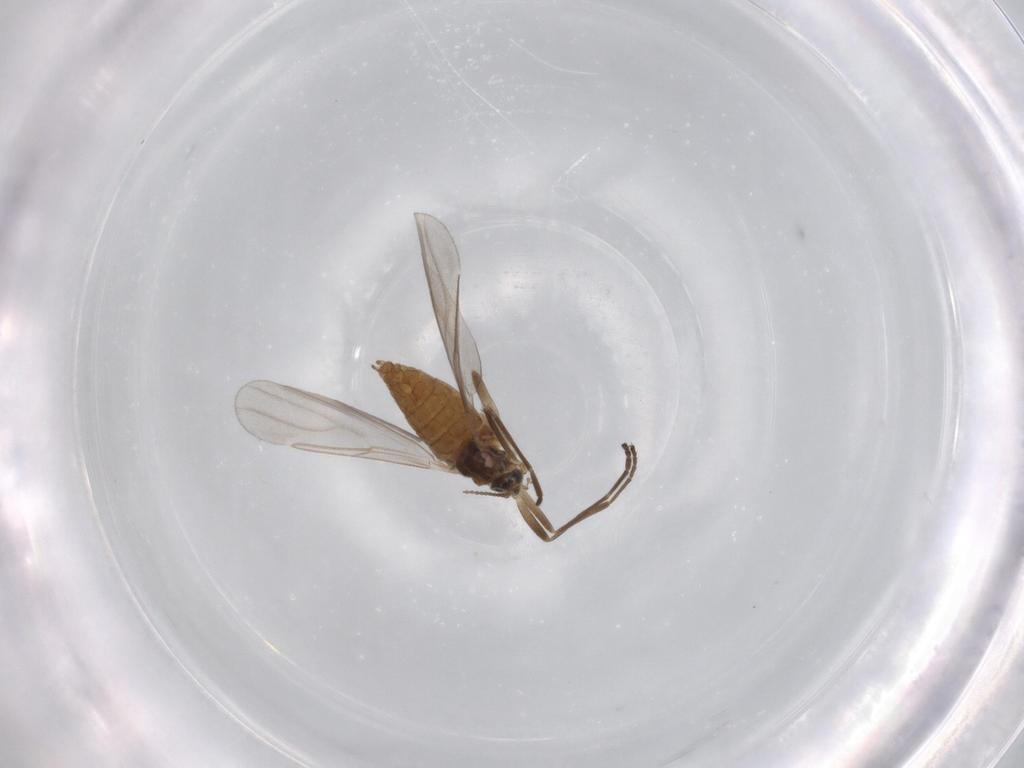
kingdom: Animalia
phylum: Arthropoda
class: Insecta
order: Diptera
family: Cecidomyiidae
